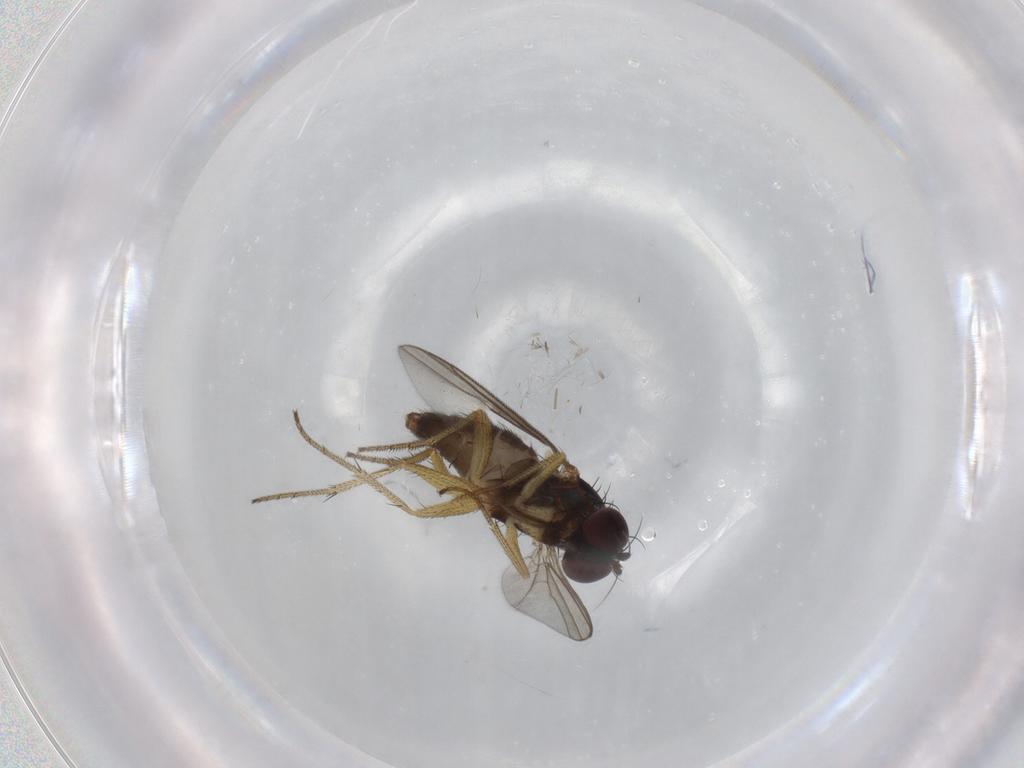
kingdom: Animalia
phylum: Arthropoda
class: Insecta
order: Diptera
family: Dolichopodidae
